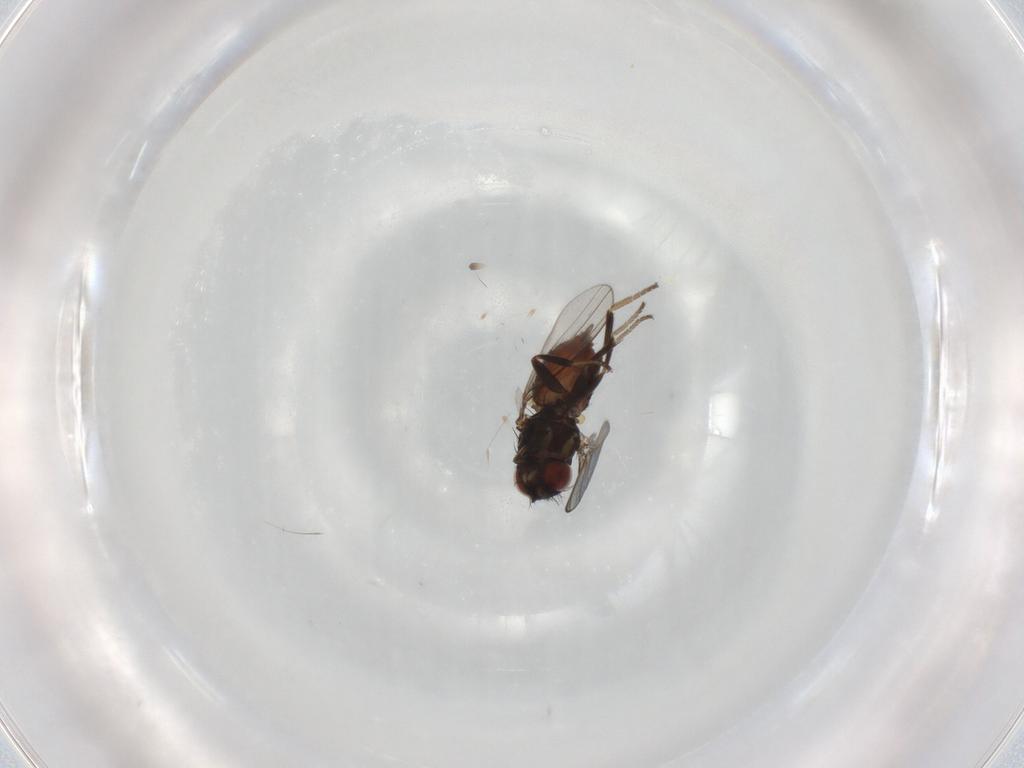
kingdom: Animalia
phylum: Arthropoda
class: Insecta
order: Diptera
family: Milichiidae
